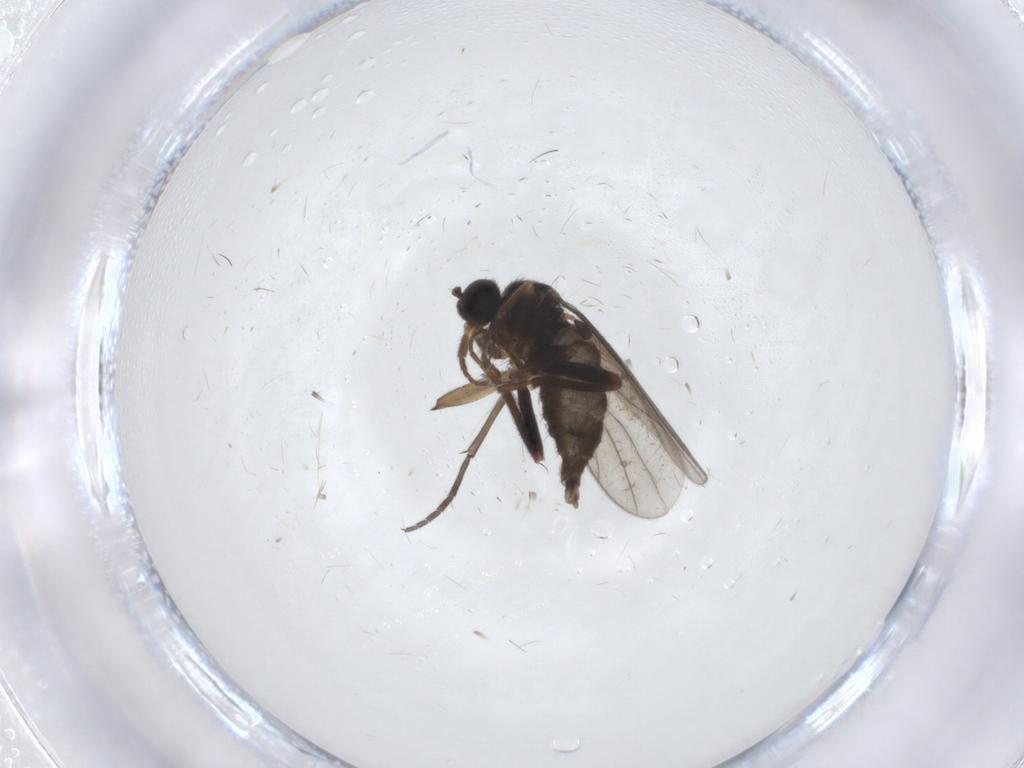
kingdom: Animalia
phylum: Arthropoda
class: Insecta
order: Diptera
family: Hybotidae
